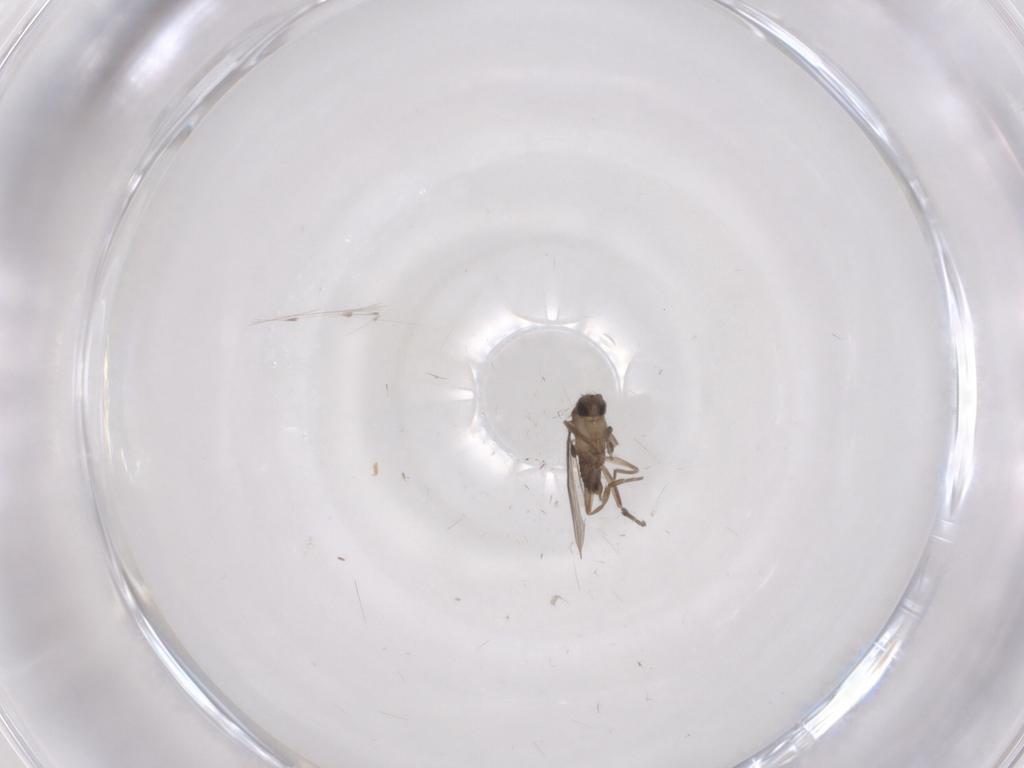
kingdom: Animalia
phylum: Arthropoda
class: Insecta
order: Diptera
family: Phoridae
